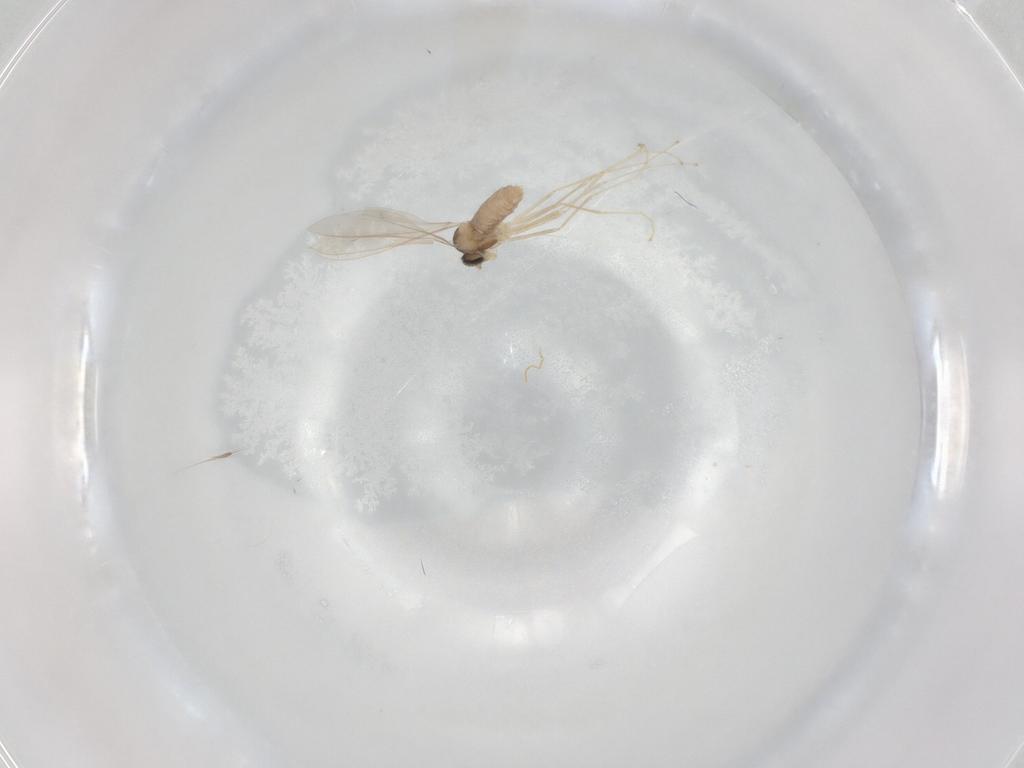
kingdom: Animalia
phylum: Arthropoda
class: Insecta
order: Diptera
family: Cecidomyiidae
